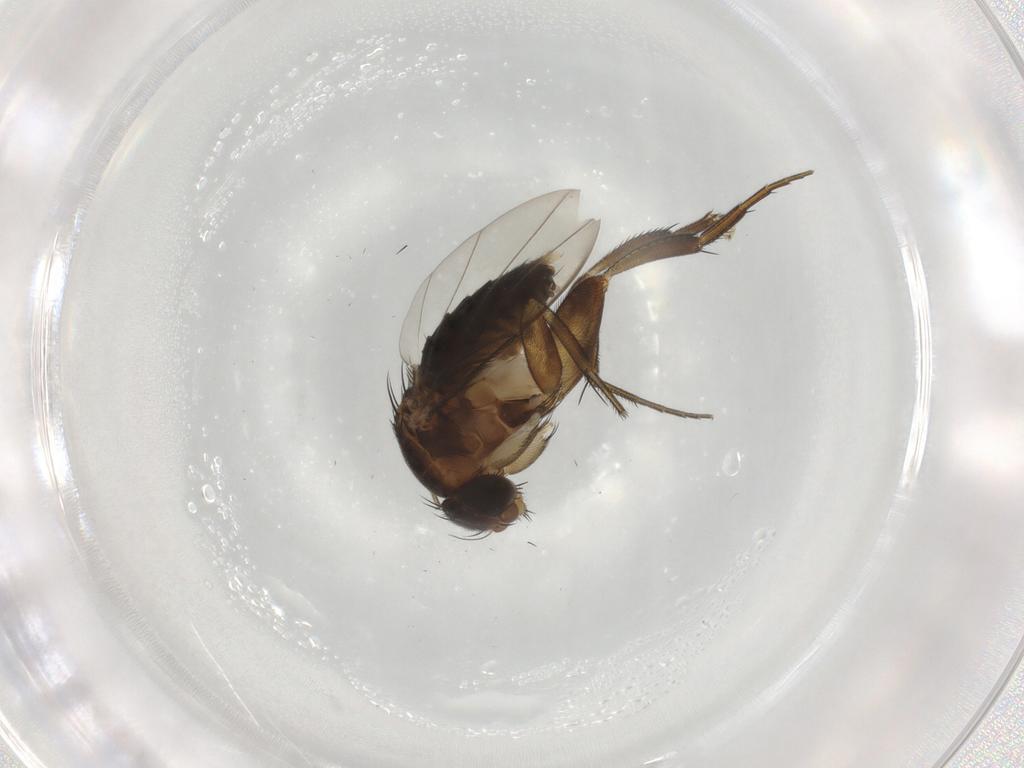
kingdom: Animalia
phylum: Arthropoda
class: Insecta
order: Diptera
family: Phoridae
